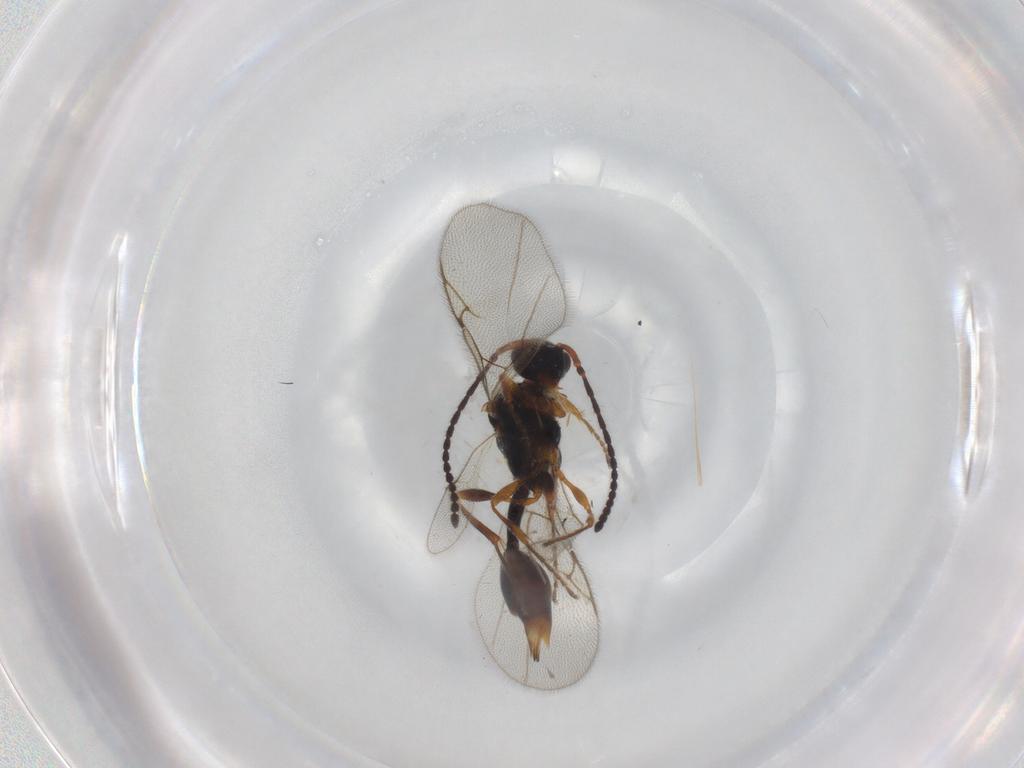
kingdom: Animalia
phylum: Arthropoda
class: Insecta
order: Hymenoptera
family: Diapriidae
